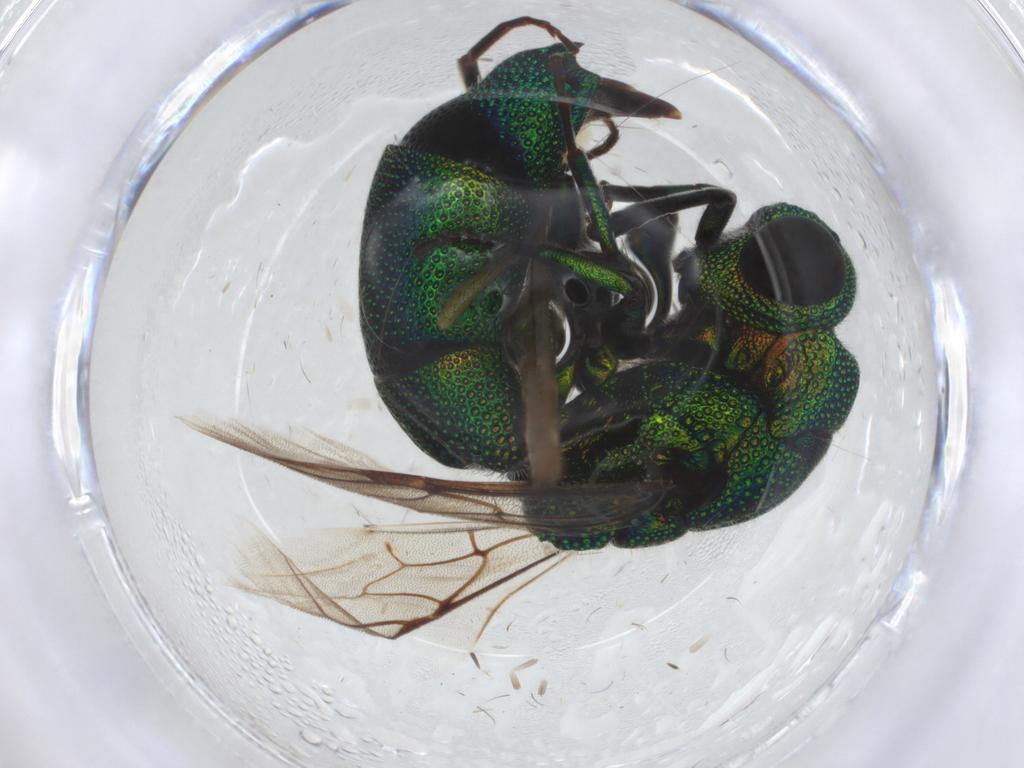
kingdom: Animalia
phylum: Arthropoda
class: Insecta
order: Hymenoptera
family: Chrysididae
